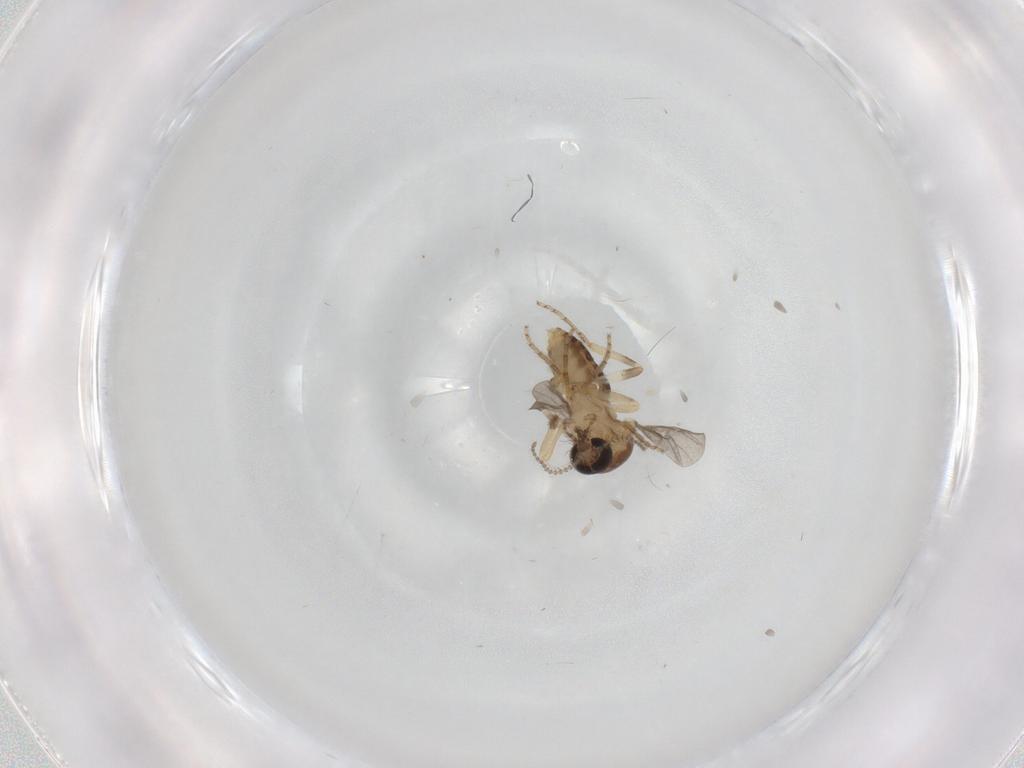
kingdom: Animalia
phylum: Arthropoda
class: Insecta
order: Diptera
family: Ceratopogonidae
